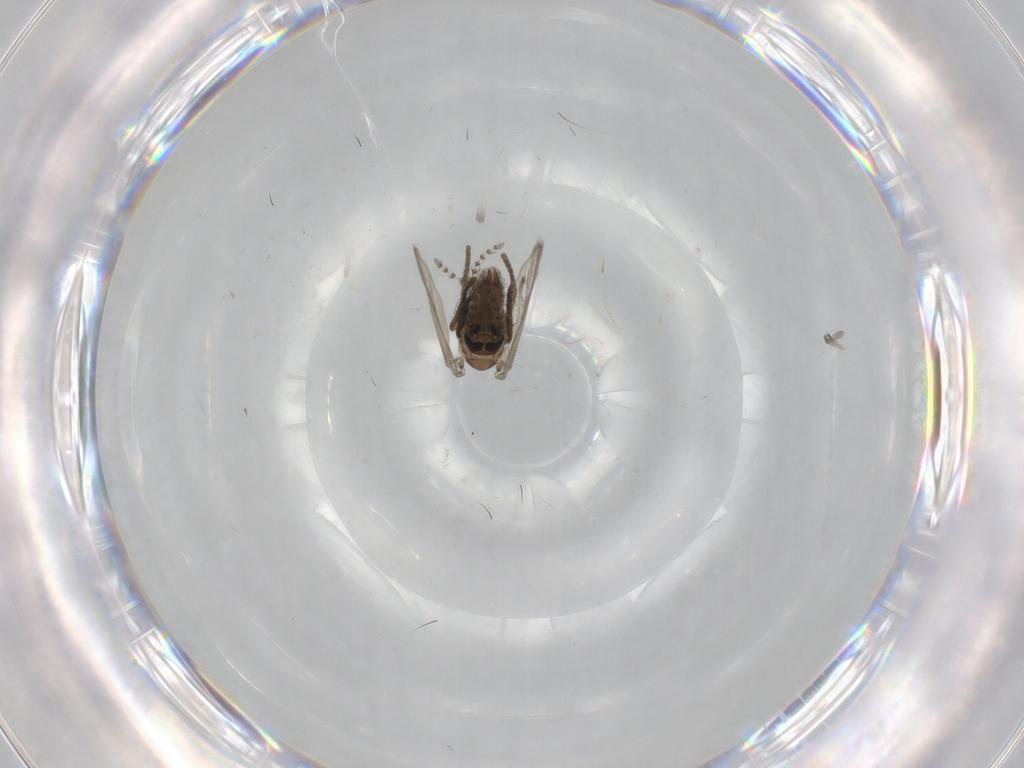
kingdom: Animalia
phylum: Arthropoda
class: Insecta
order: Diptera
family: Psychodidae
